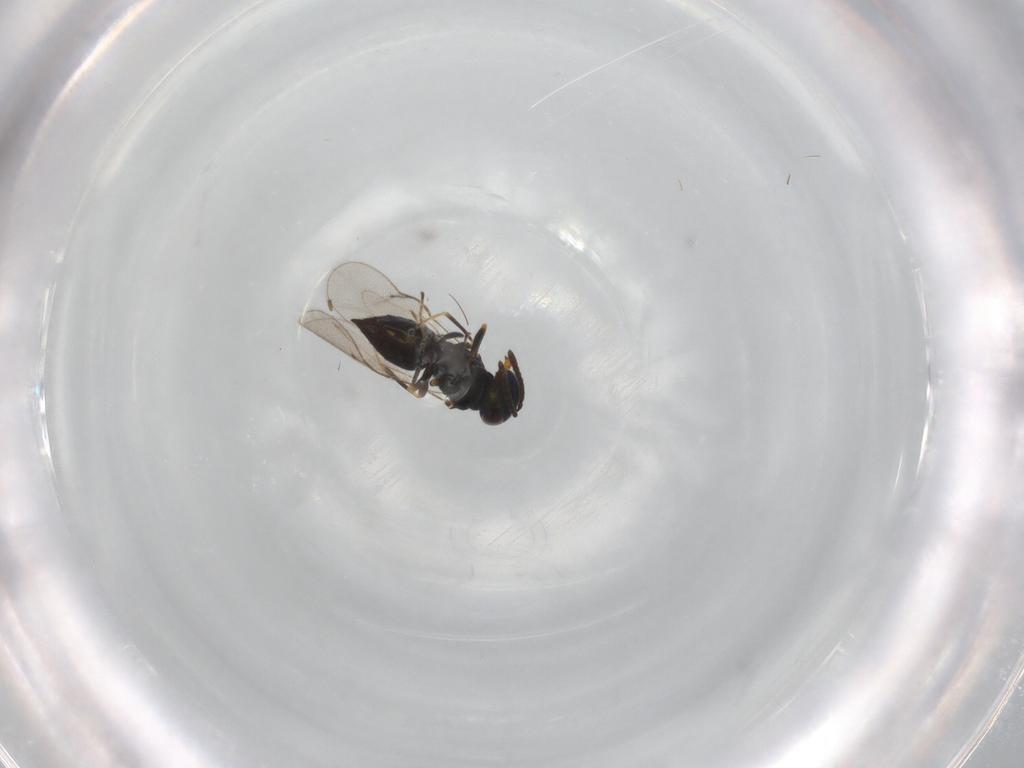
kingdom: Animalia
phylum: Arthropoda
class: Insecta
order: Hymenoptera
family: Pteromalidae
